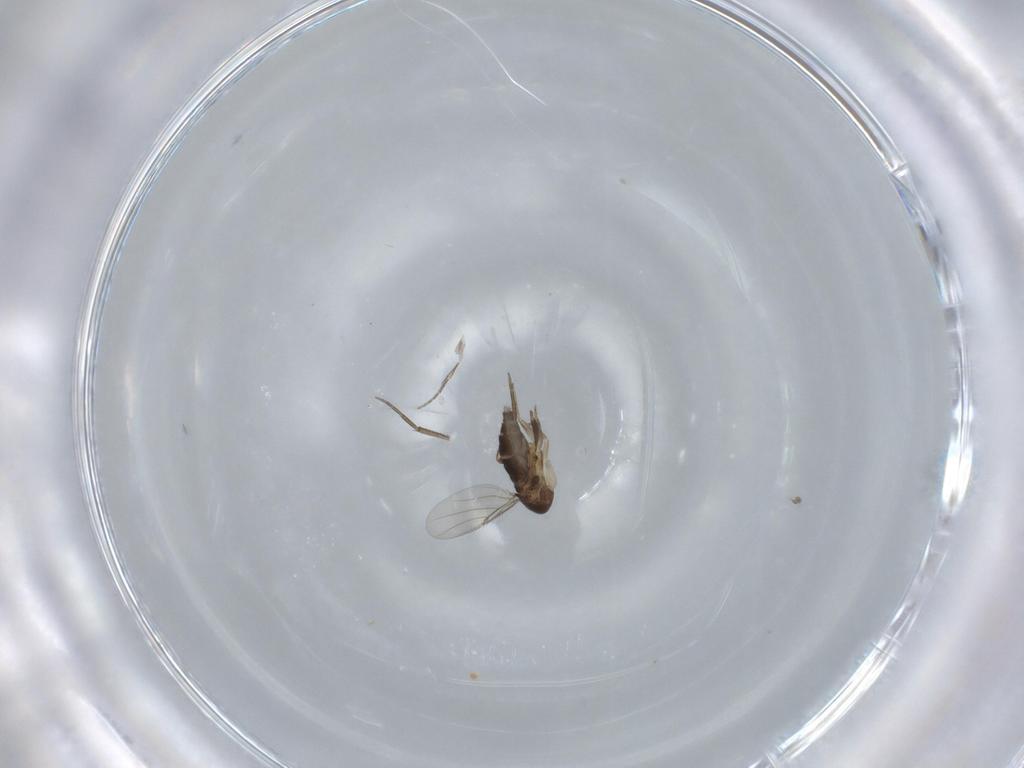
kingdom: Animalia
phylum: Arthropoda
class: Insecta
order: Diptera
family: Phoridae
